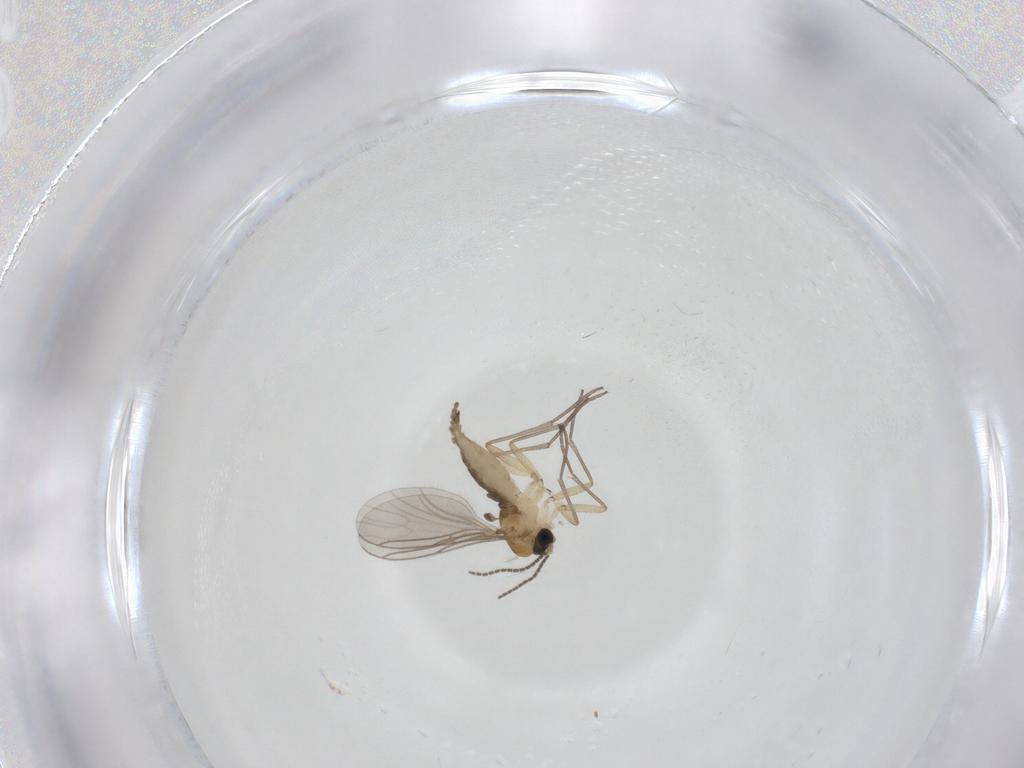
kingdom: Animalia
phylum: Arthropoda
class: Insecta
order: Diptera
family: Sciaridae
